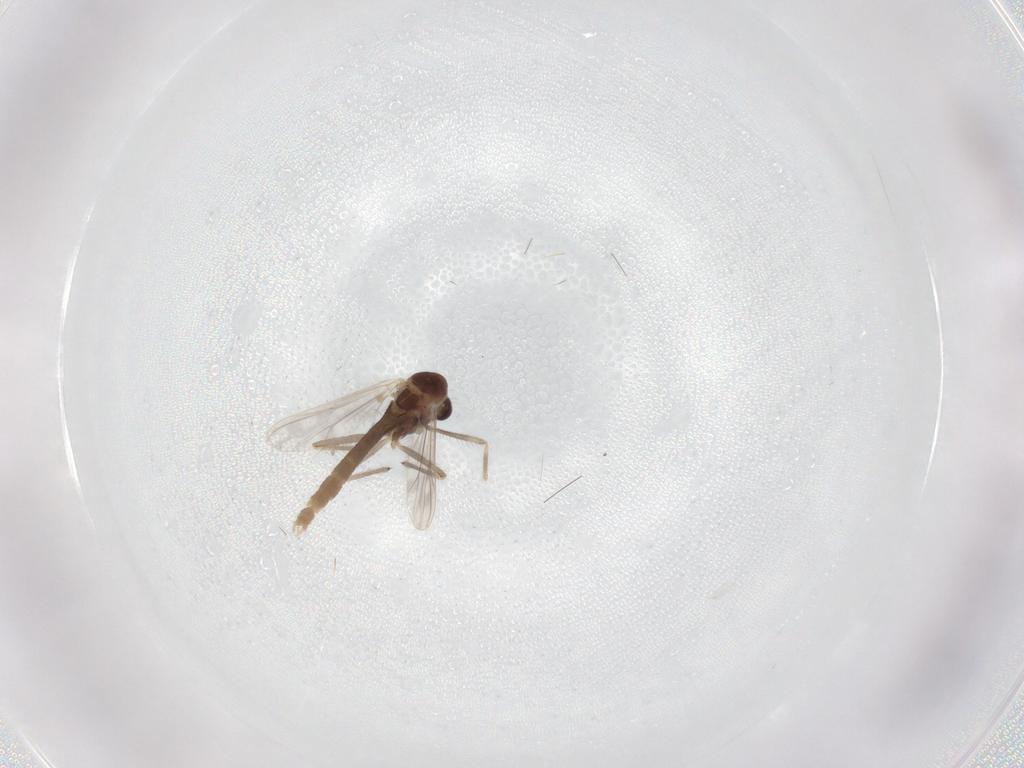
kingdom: Animalia
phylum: Arthropoda
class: Insecta
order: Diptera
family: Chironomidae
